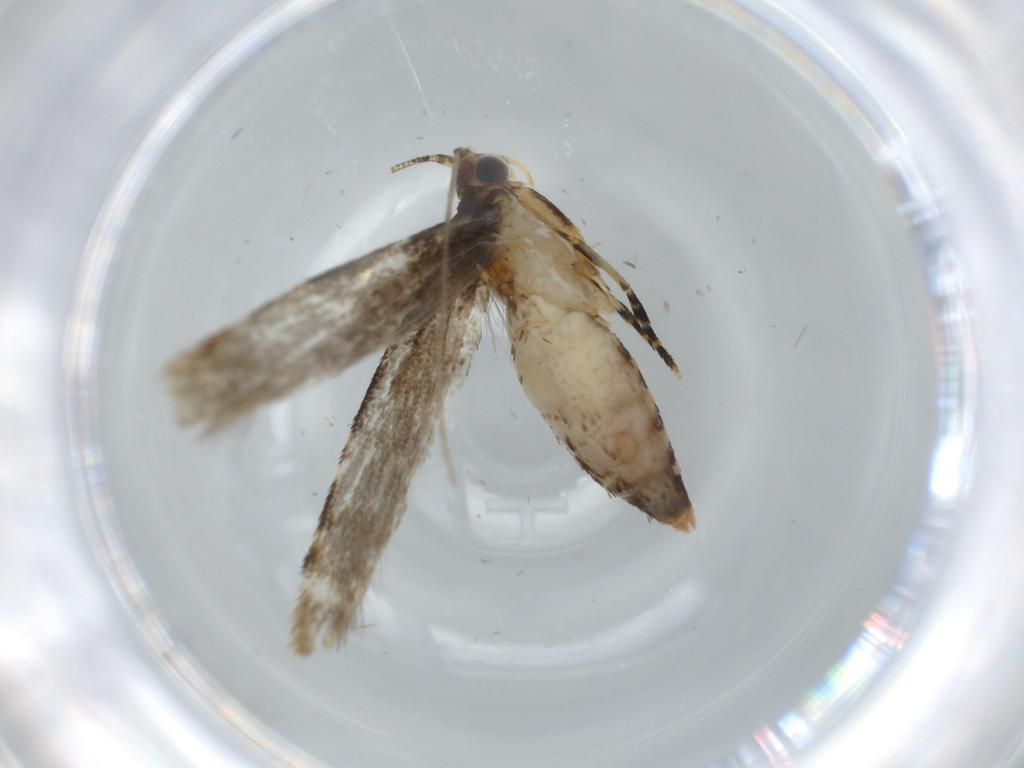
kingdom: Animalia
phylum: Arthropoda
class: Insecta
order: Lepidoptera
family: Tineidae
